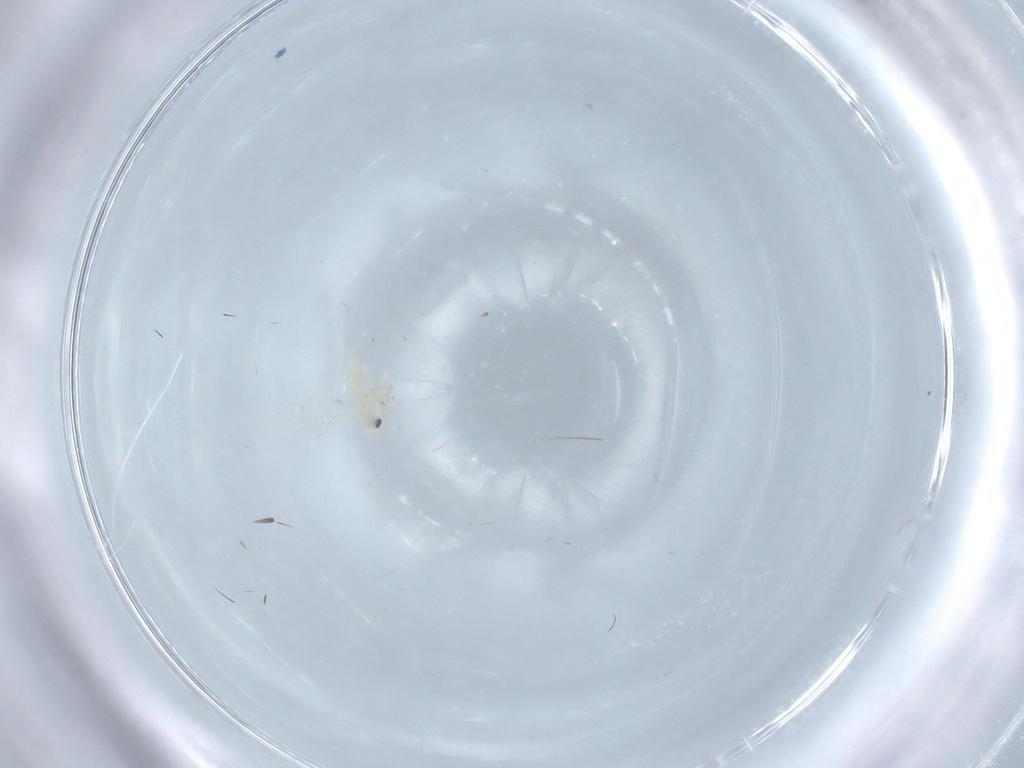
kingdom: Animalia
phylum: Arthropoda
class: Insecta
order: Hemiptera
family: Aleyrodidae
